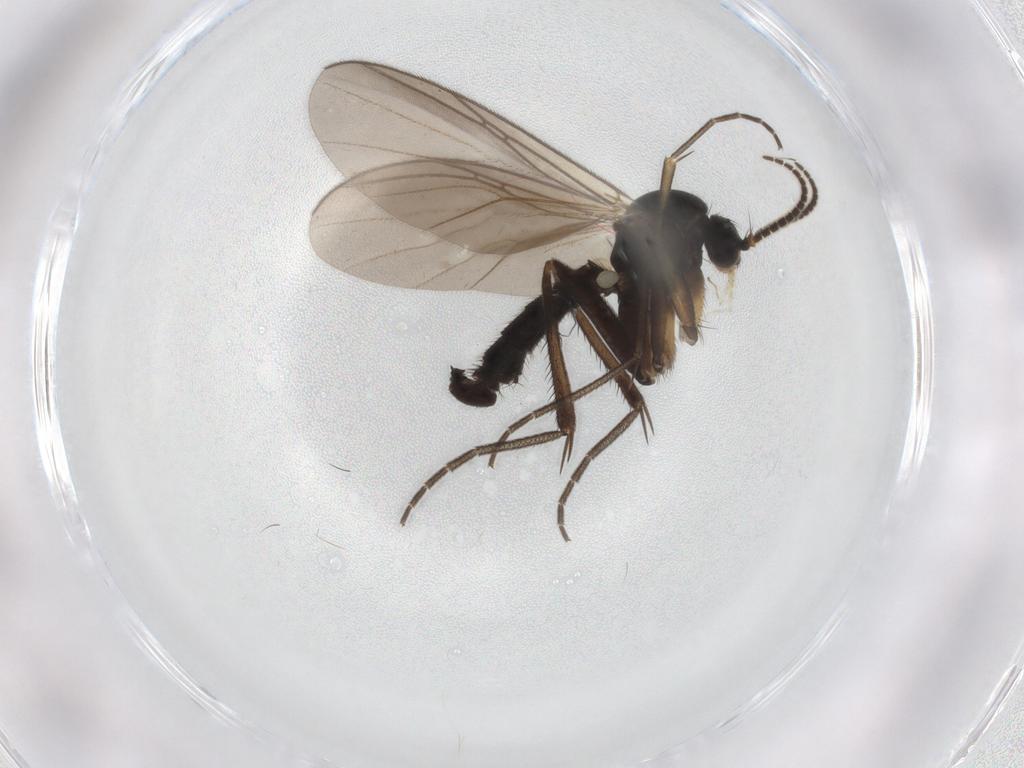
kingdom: Animalia
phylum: Arthropoda
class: Insecta
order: Diptera
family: Phoridae
